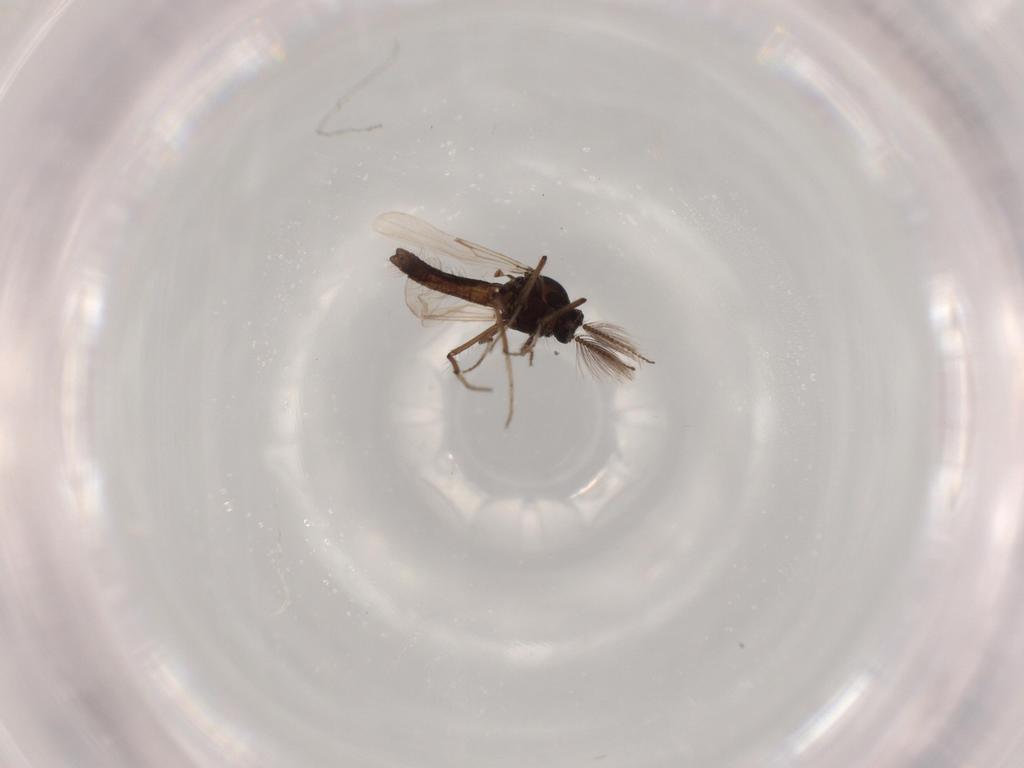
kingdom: Animalia
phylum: Arthropoda
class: Insecta
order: Diptera
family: Chironomidae
